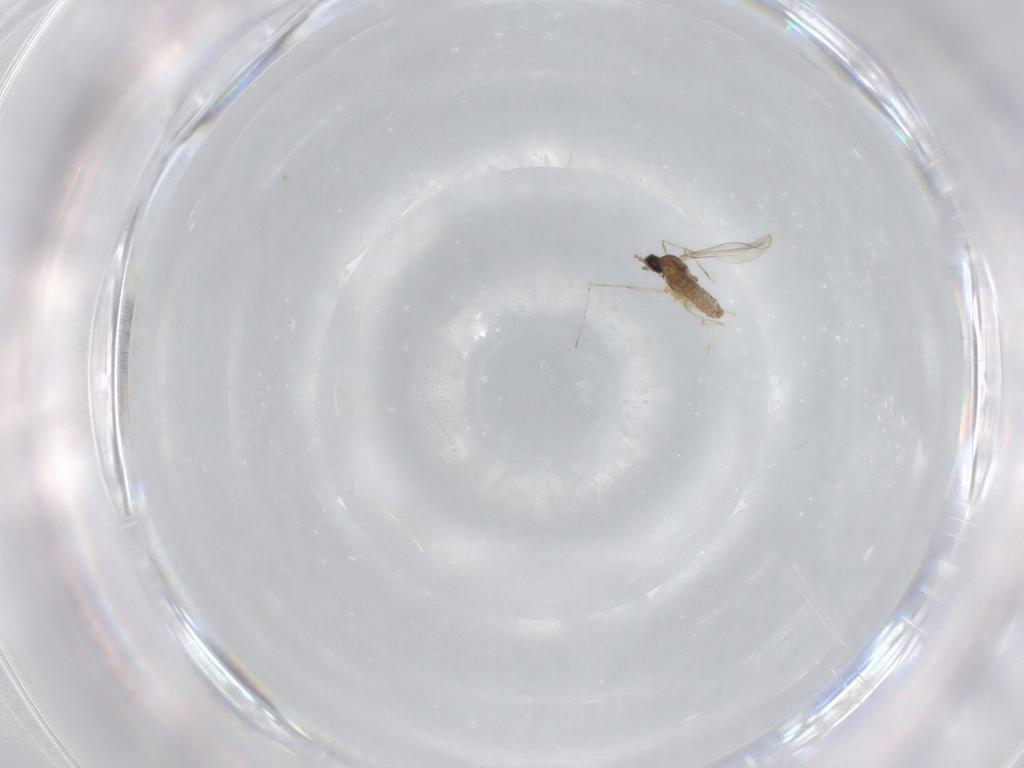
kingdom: Animalia
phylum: Arthropoda
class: Insecta
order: Diptera
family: Cecidomyiidae
